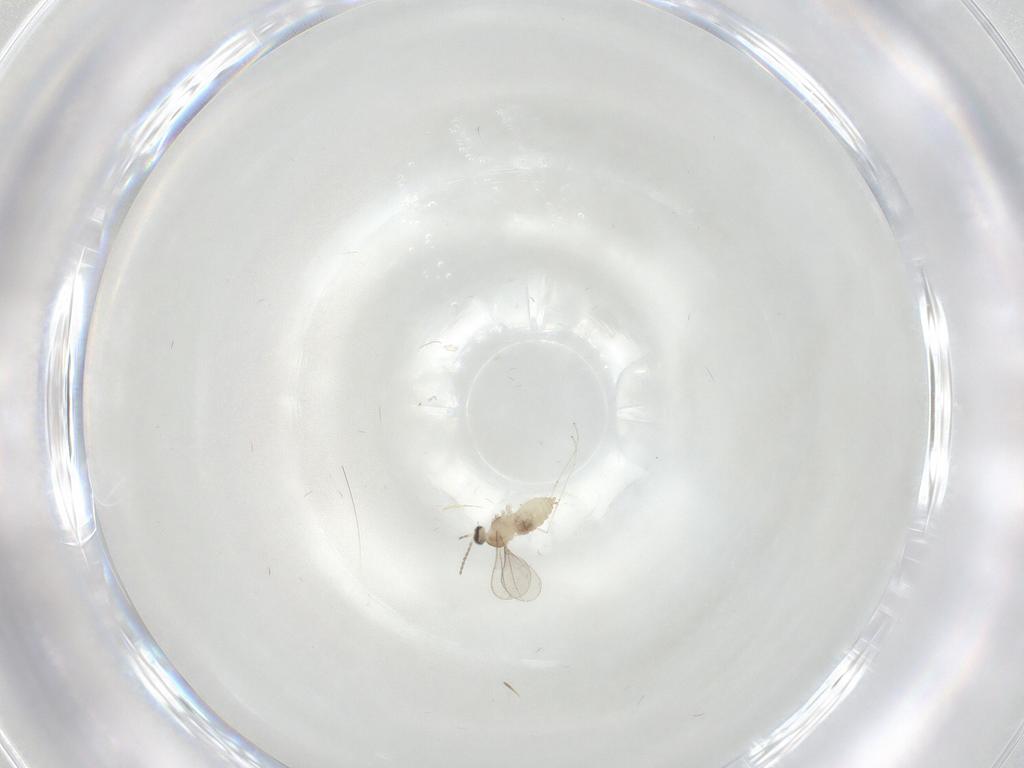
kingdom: Animalia
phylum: Arthropoda
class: Insecta
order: Diptera
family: Cecidomyiidae
